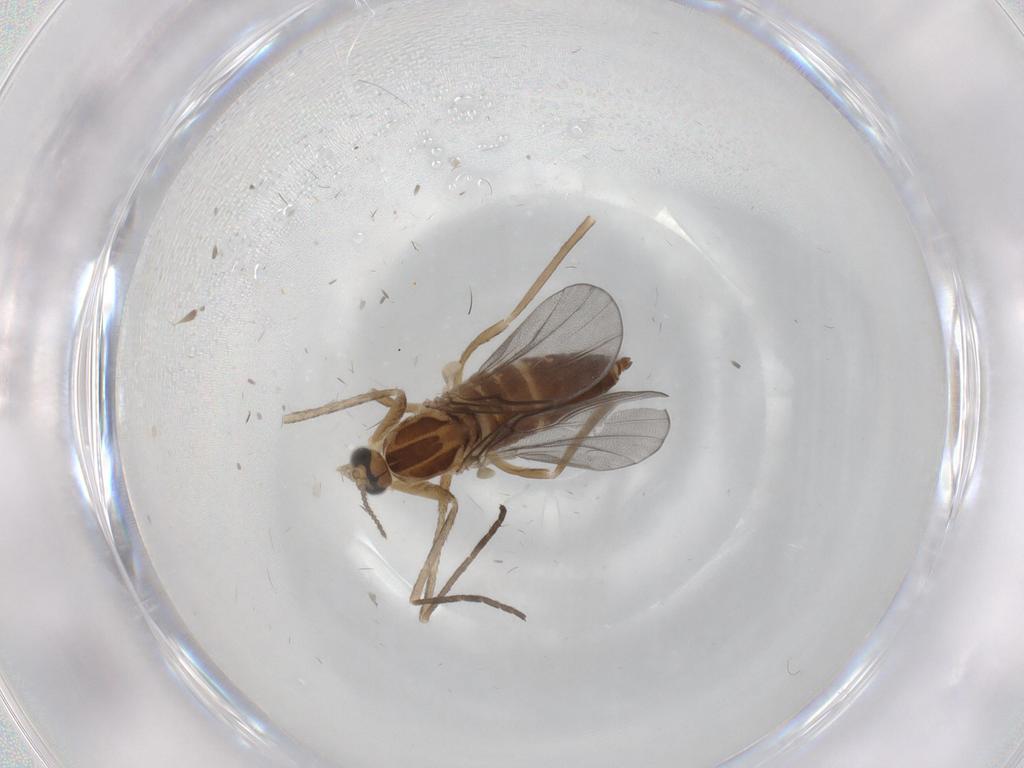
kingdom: Animalia
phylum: Arthropoda
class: Insecta
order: Diptera
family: Cecidomyiidae
